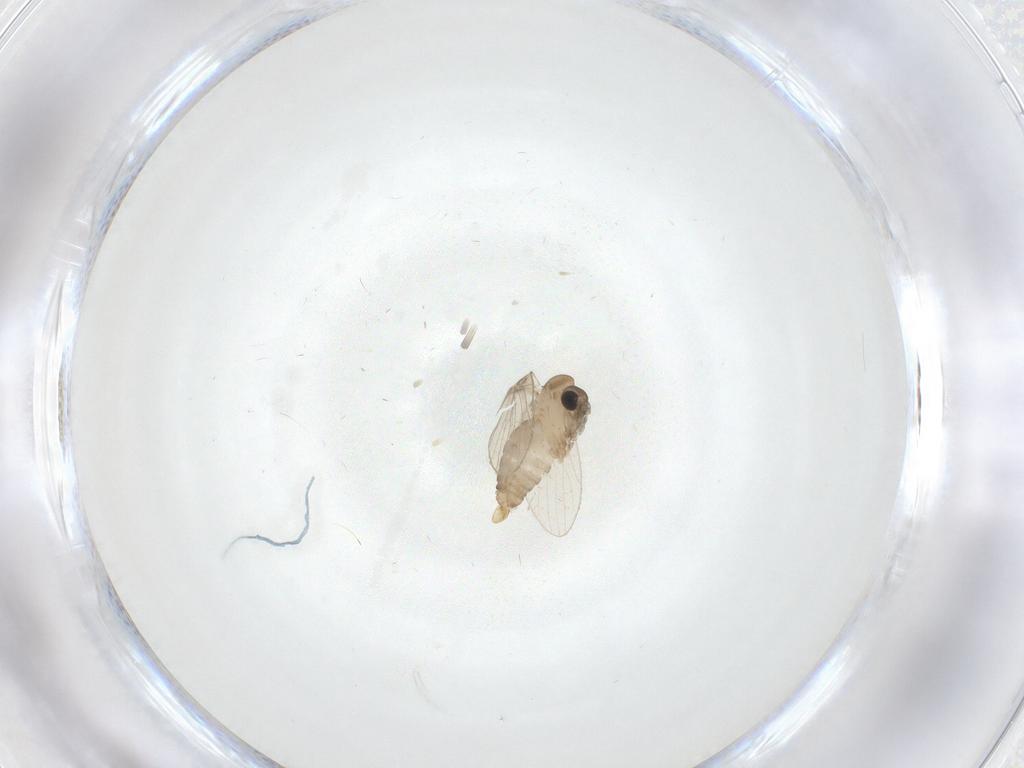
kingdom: Animalia
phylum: Arthropoda
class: Insecta
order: Diptera
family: Psychodidae
